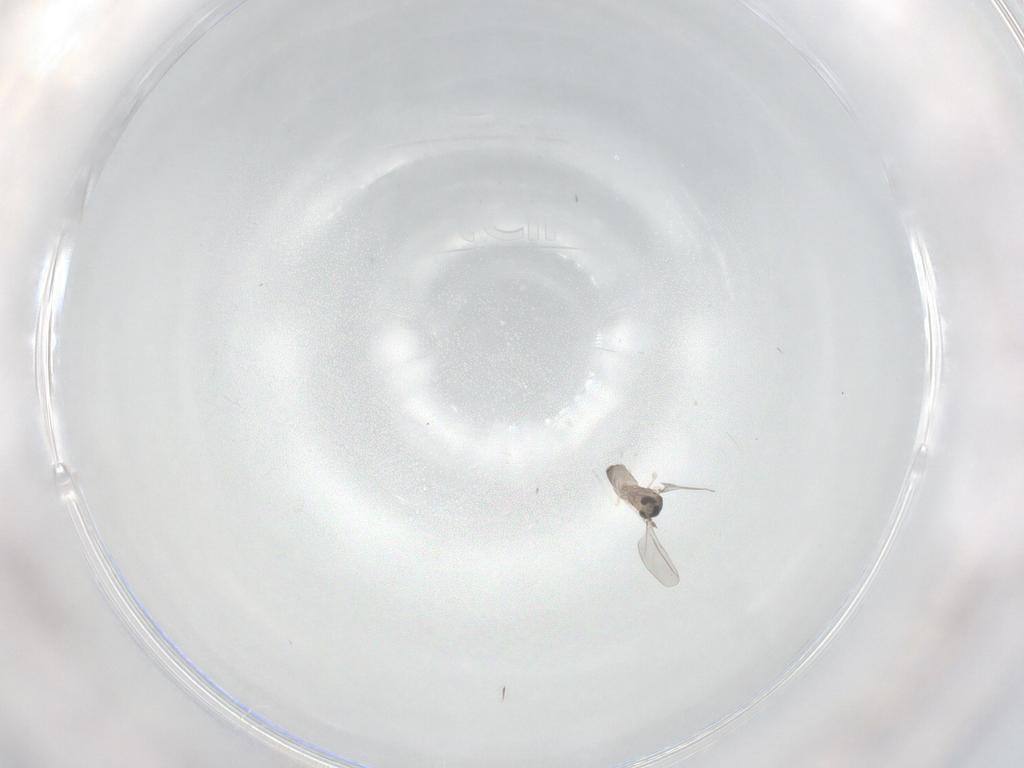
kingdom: Animalia
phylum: Arthropoda
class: Insecta
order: Diptera
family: Cecidomyiidae
